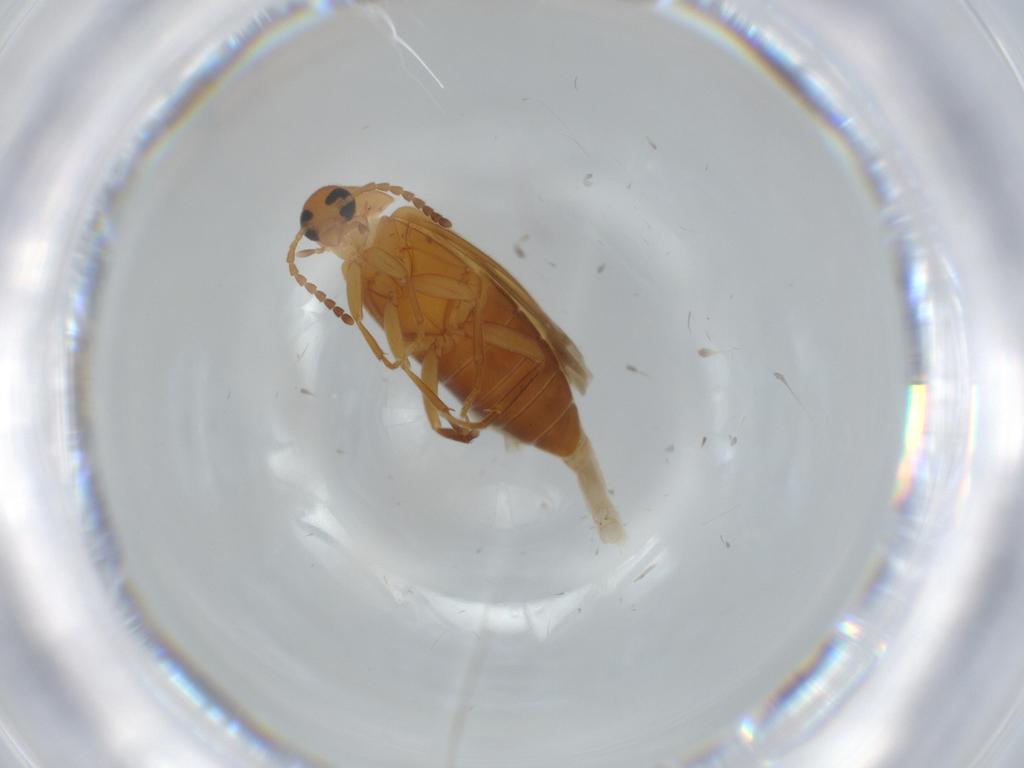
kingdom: Animalia
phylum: Arthropoda
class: Insecta
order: Coleoptera
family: Scraptiidae
